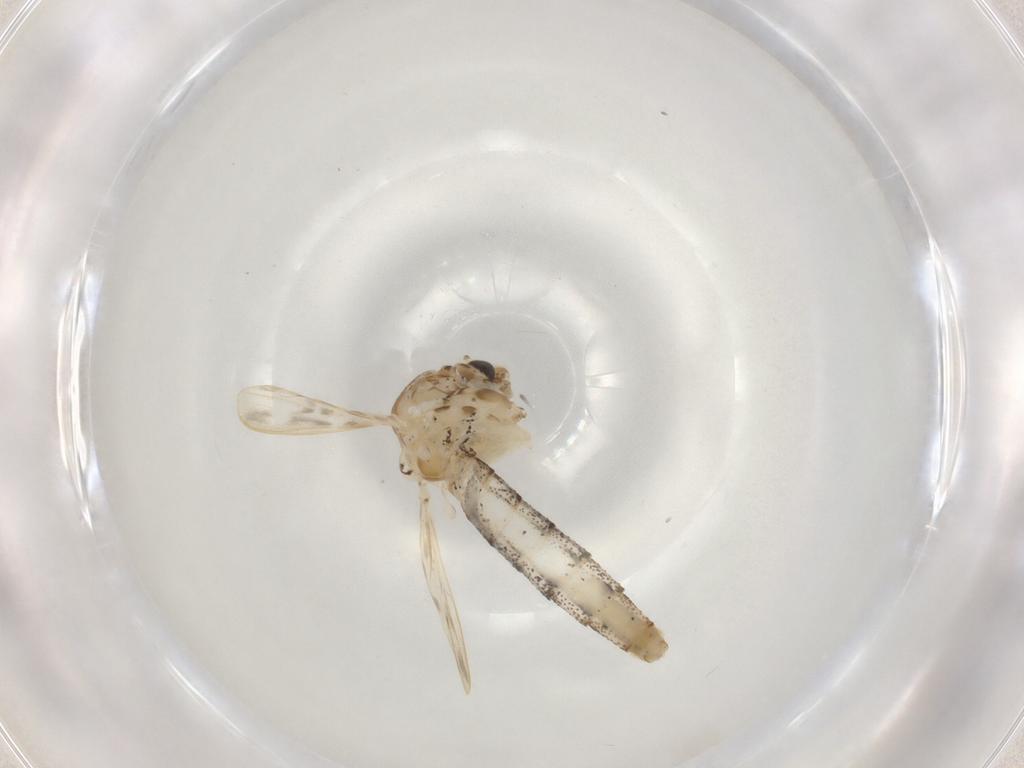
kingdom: Animalia
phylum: Arthropoda
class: Insecta
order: Diptera
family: Chaoboridae
